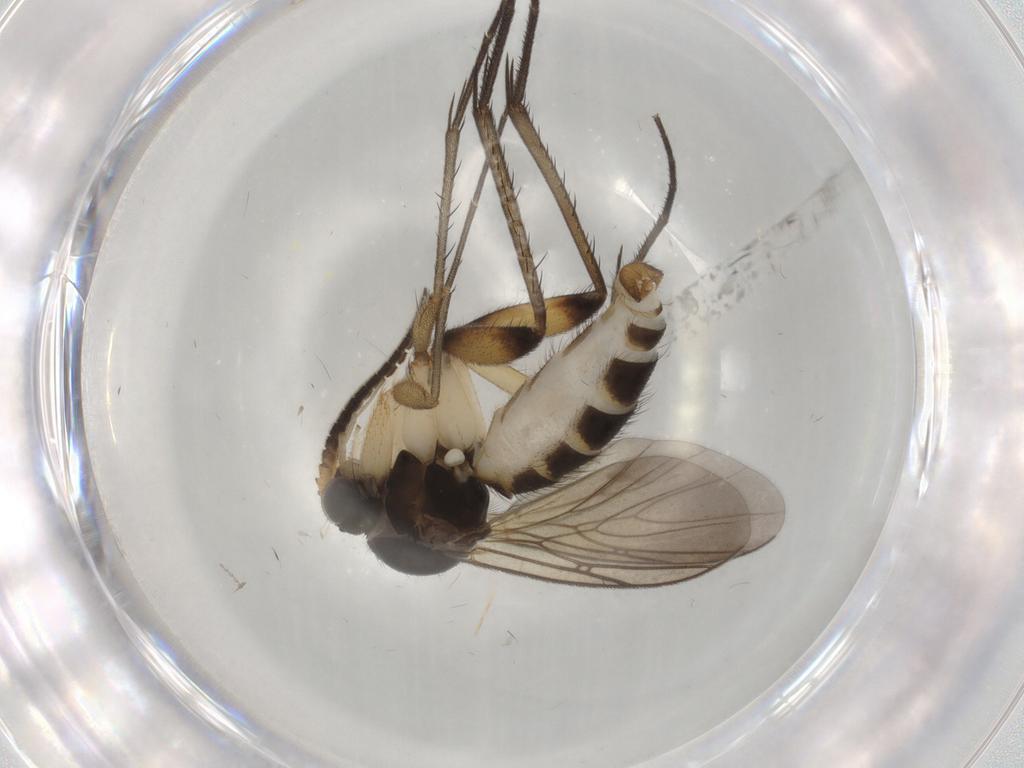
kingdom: Animalia
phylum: Arthropoda
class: Insecta
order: Diptera
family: Sciaridae
